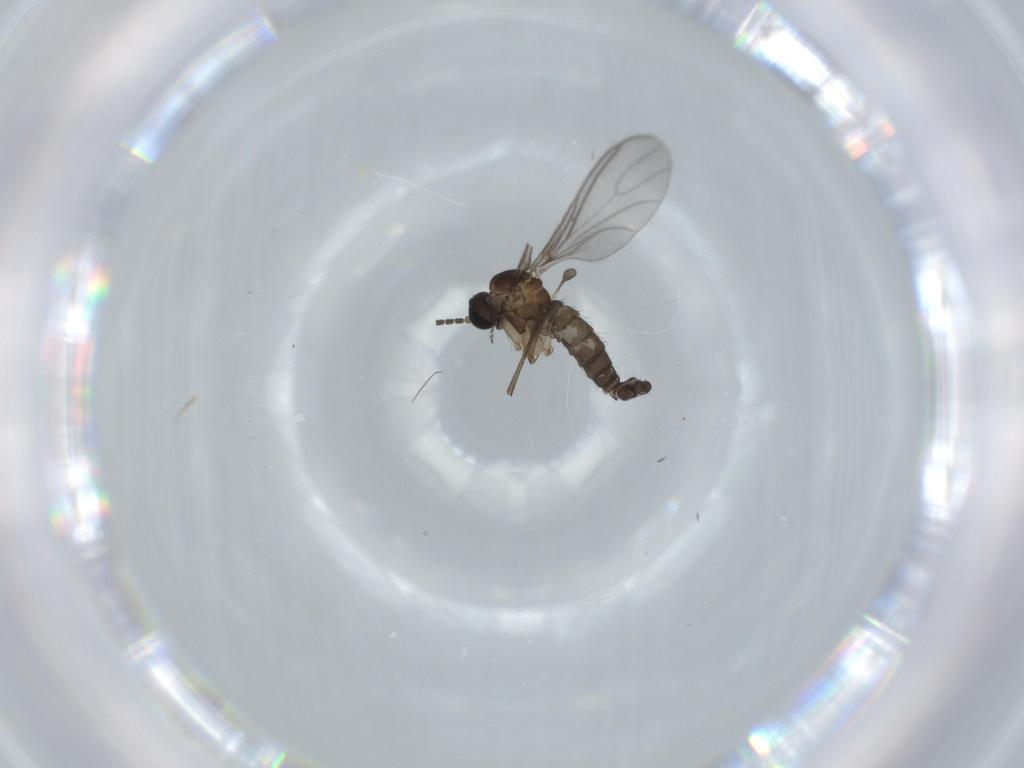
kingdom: Animalia
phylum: Arthropoda
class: Insecta
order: Diptera
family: Sciaridae
